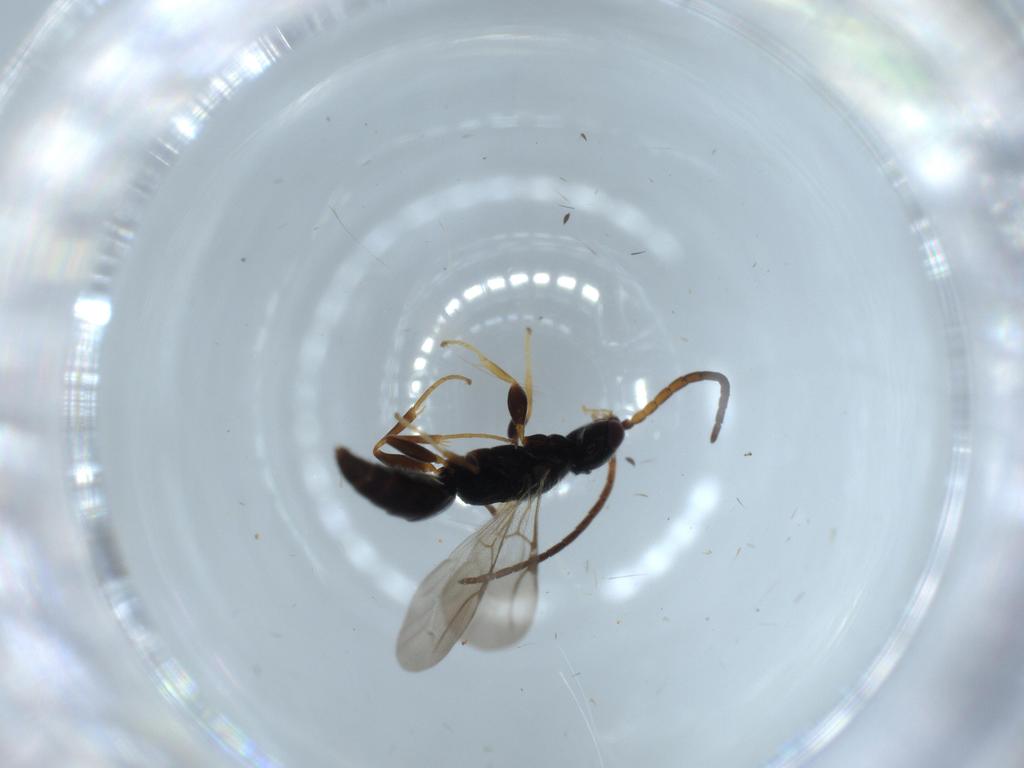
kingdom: Animalia
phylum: Arthropoda
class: Insecta
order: Hymenoptera
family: Bethylidae
